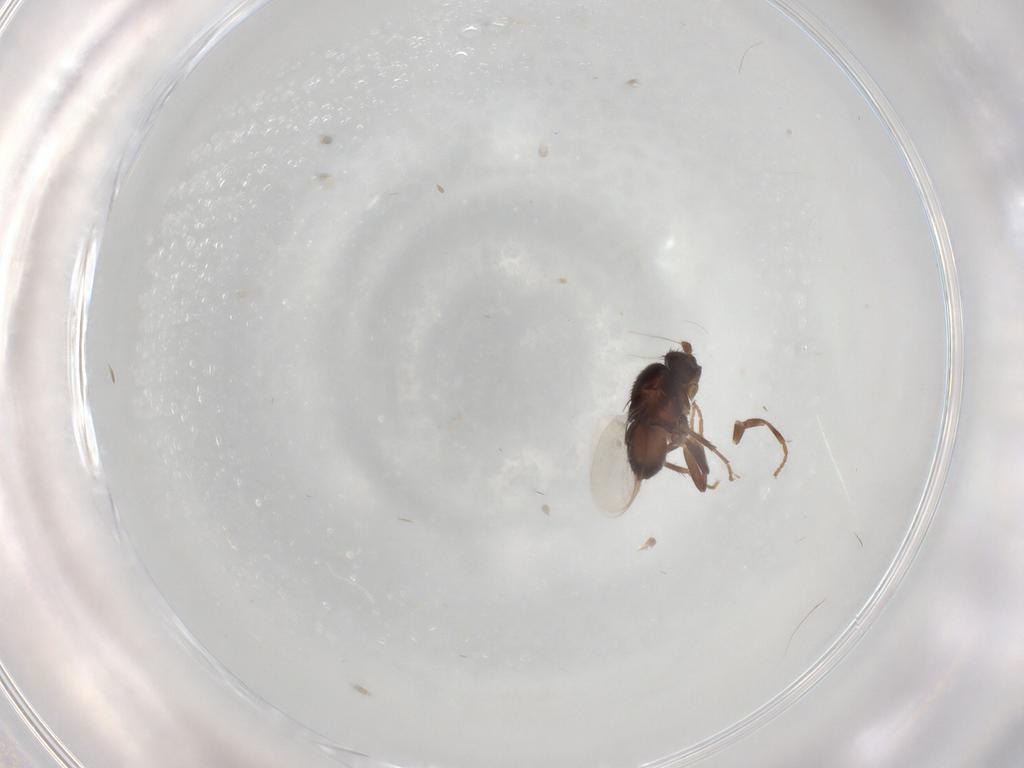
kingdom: Animalia
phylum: Arthropoda
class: Insecta
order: Diptera
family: Sphaeroceridae
